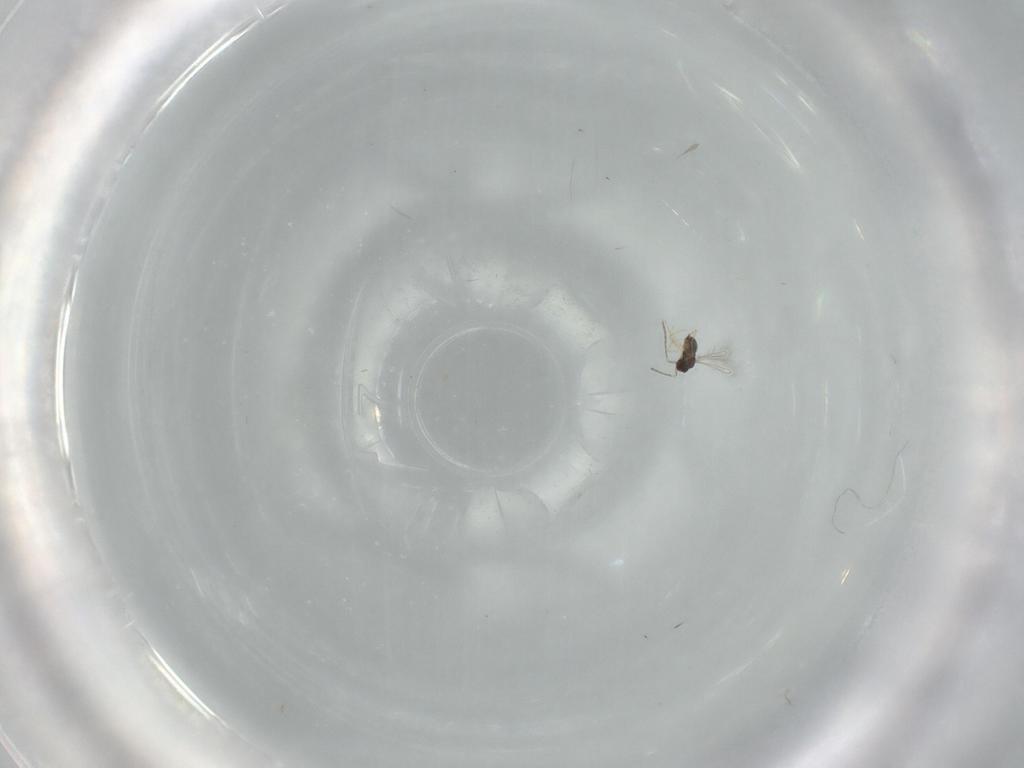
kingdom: Animalia
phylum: Arthropoda
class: Insecta
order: Hymenoptera
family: Mymaridae
